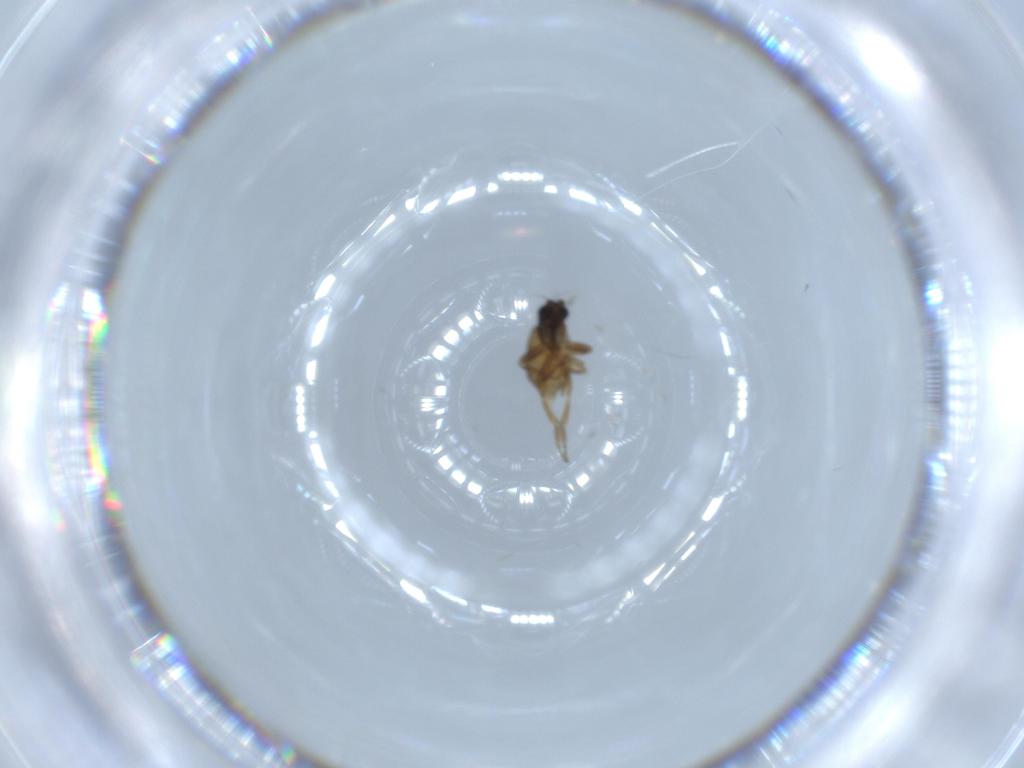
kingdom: Animalia
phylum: Arthropoda
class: Insecta
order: Diptera
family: Phoridae
